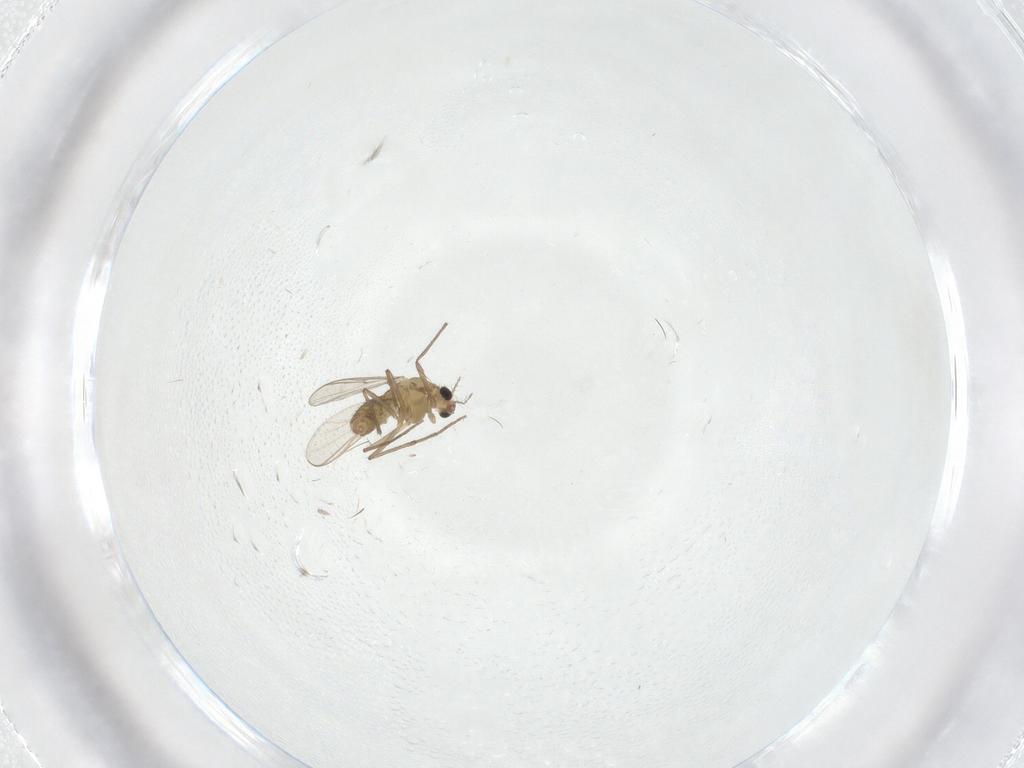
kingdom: Animalia
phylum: Arthropoda
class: Insecta
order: Diptera
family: Chironomidae
